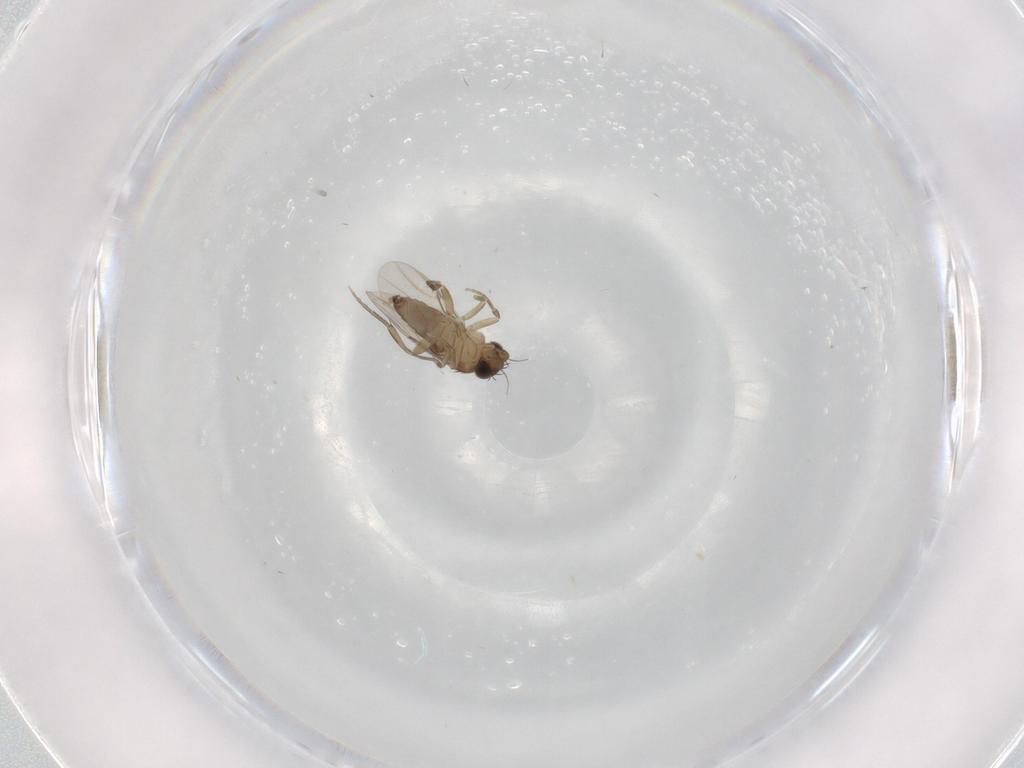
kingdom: Animalia
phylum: Arthropoda
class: Insecta
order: Diptera
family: Phoridae
